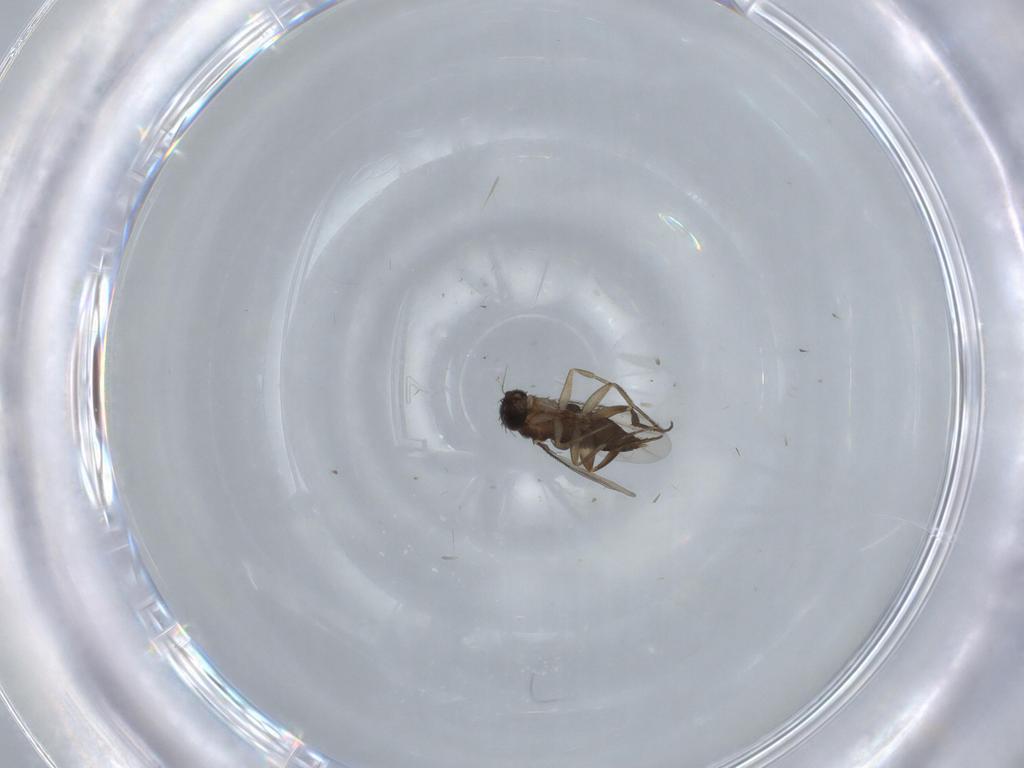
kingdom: Animalia
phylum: Arthropoda
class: Insecta
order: Diptera
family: Phoridae
